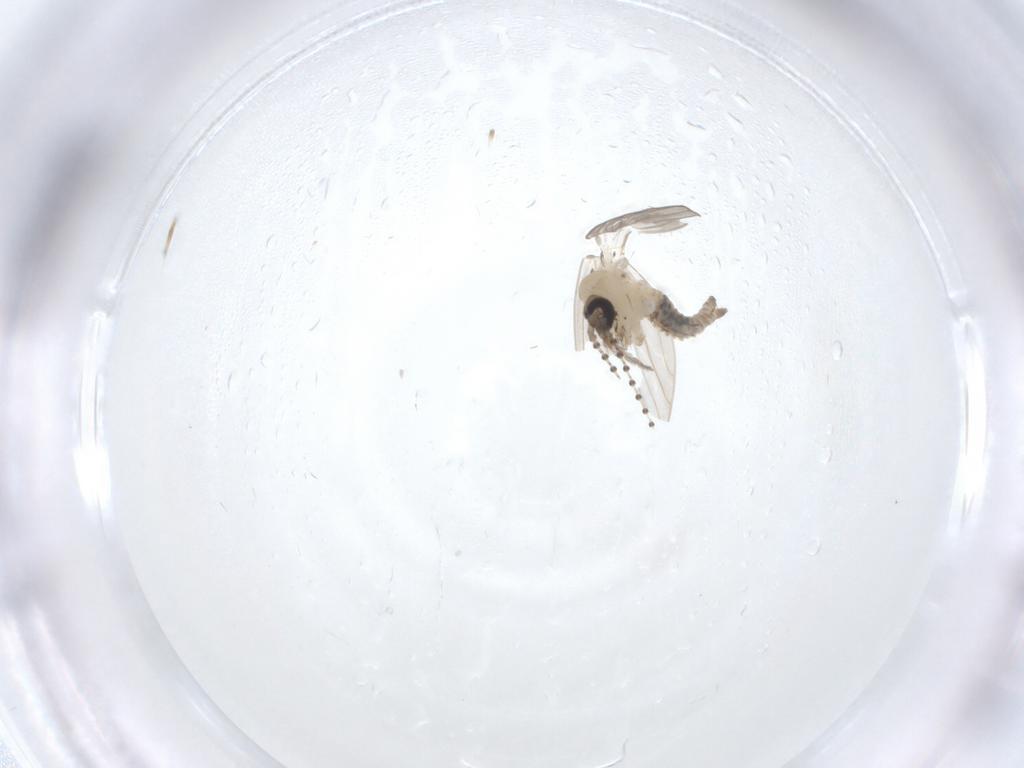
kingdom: Animalia
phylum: Arthropoda
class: Insecta
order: Diptera
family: Psychodidae
